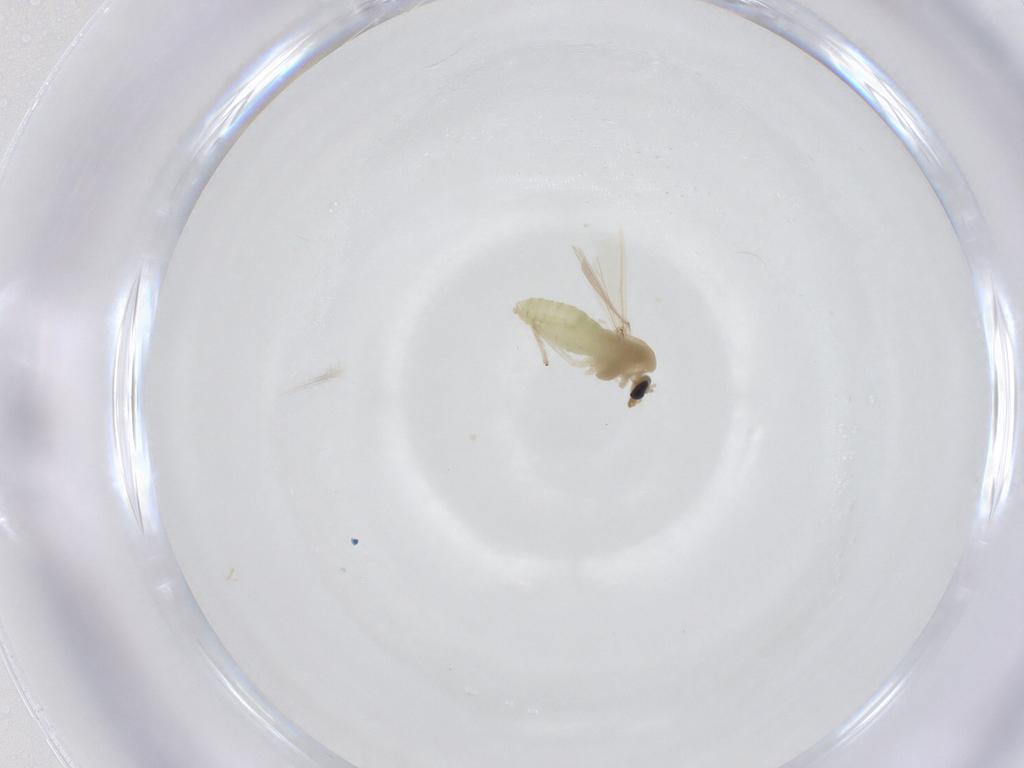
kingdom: Animalia
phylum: Arthropoda
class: Insecta
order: Diptera
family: Chironomidae
